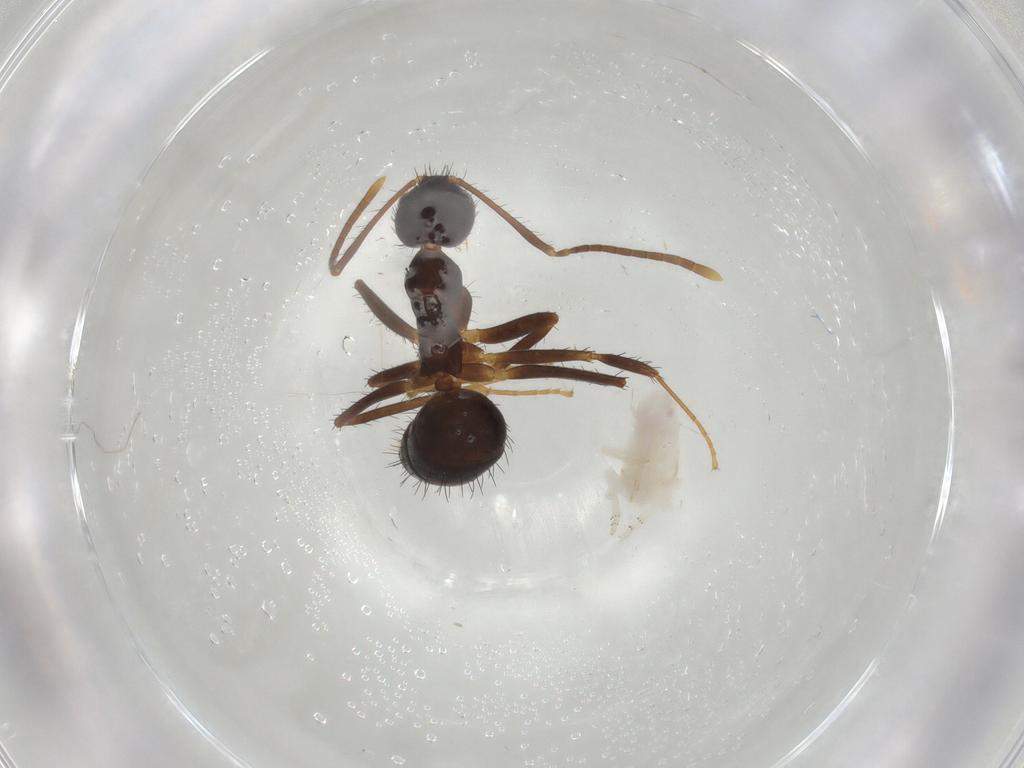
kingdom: Animalia
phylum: Arthropoda
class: Insecta
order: Hymenoptera
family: Formicidae
